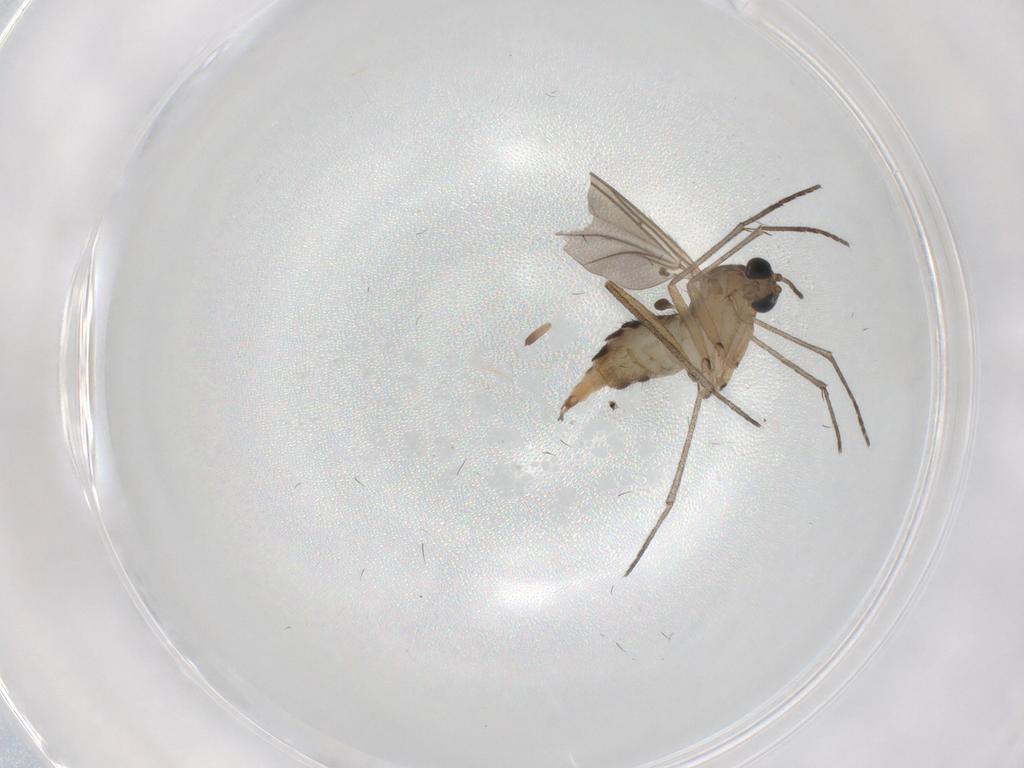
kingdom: Animalia
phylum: Arthropoda
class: Insecta
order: Diptera
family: Sciaridae
